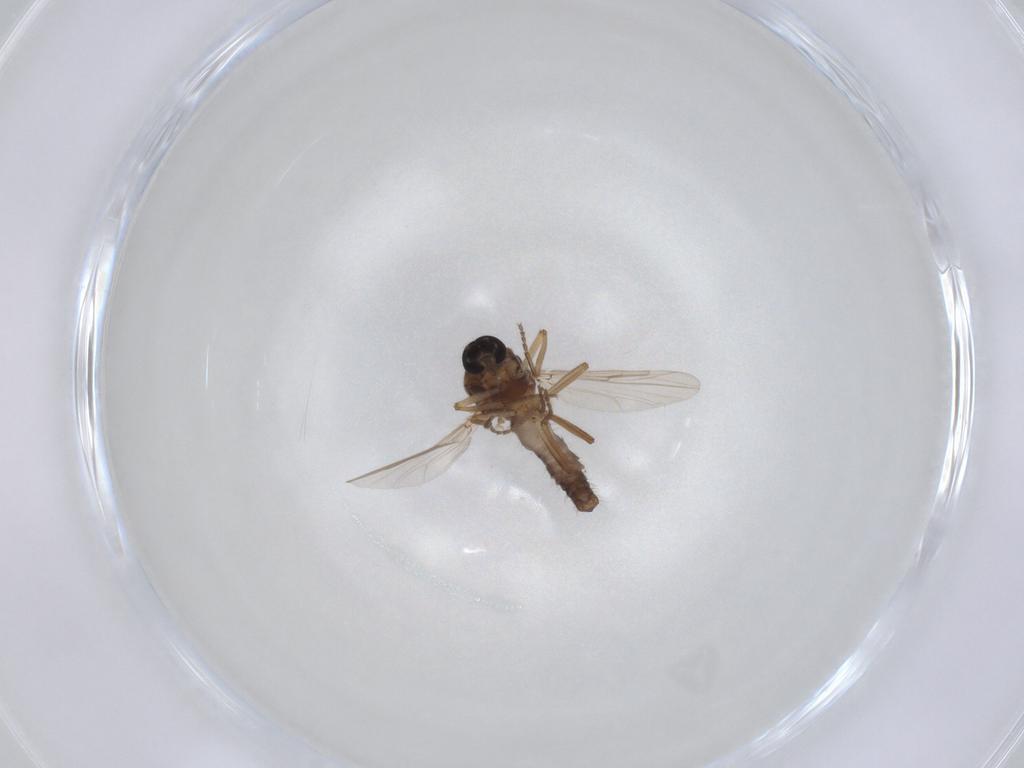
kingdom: Animalia
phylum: Arthropoda
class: Insecta
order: Diptera
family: Ceratopogonidae
